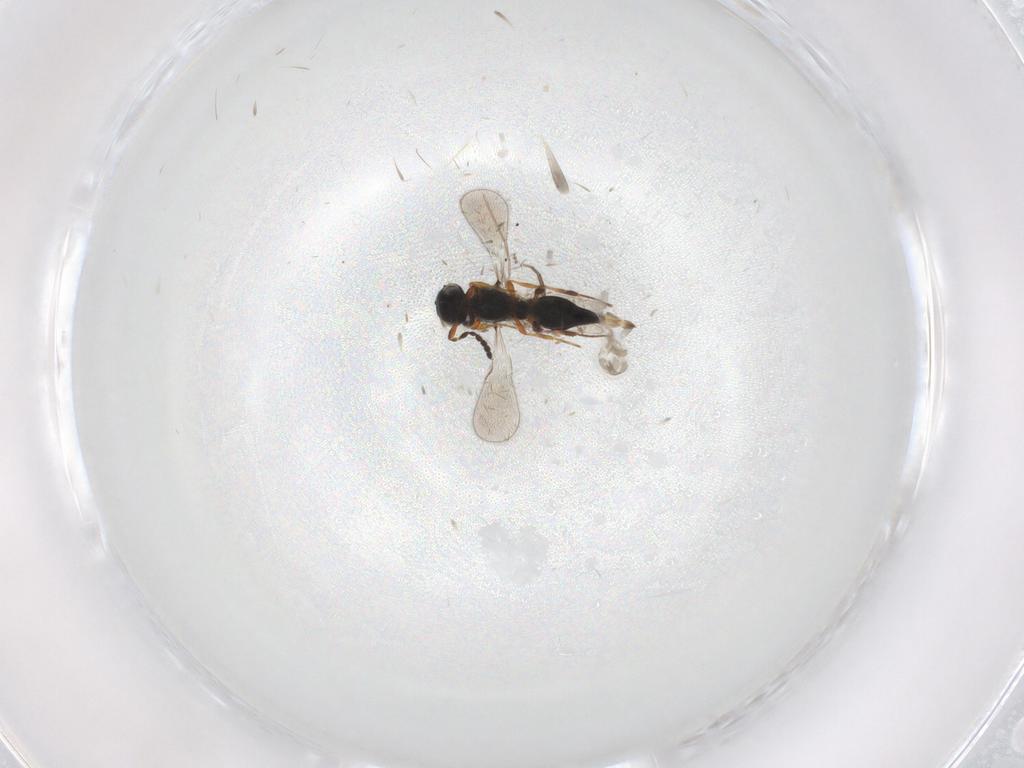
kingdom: Animalia
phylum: Arthropoda
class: Insecta
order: Hymenoptera
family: Platygastridae
